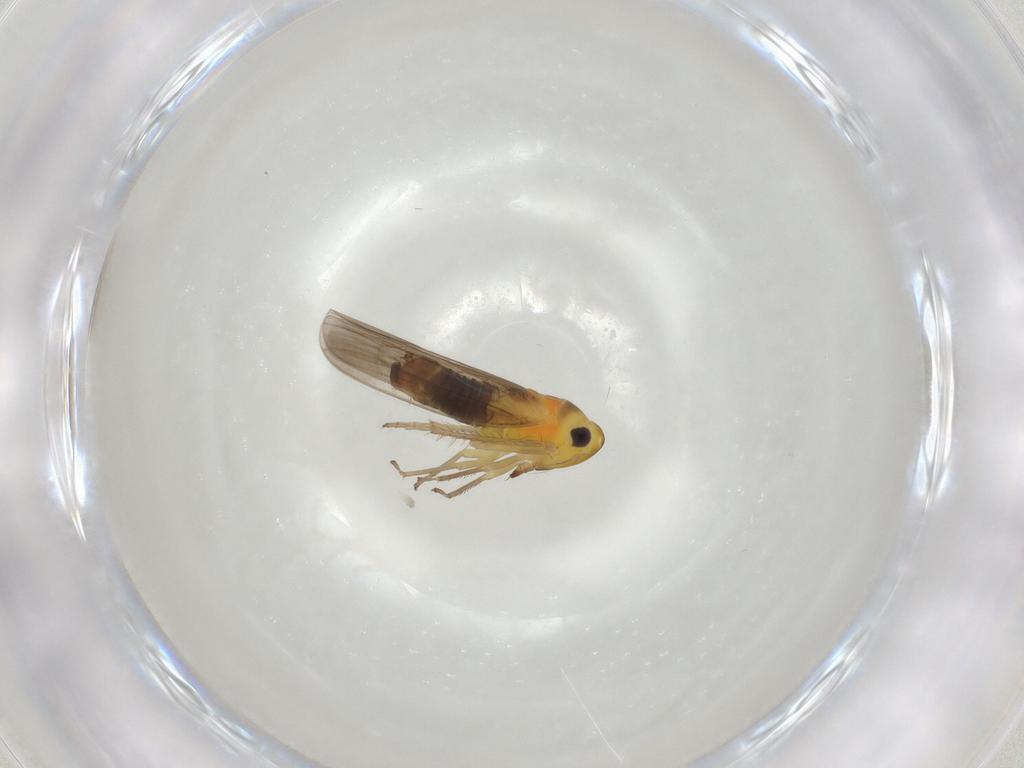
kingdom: Animalia
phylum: Arthropoda
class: Insecta
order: Hemiptera
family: Cicadellidae
